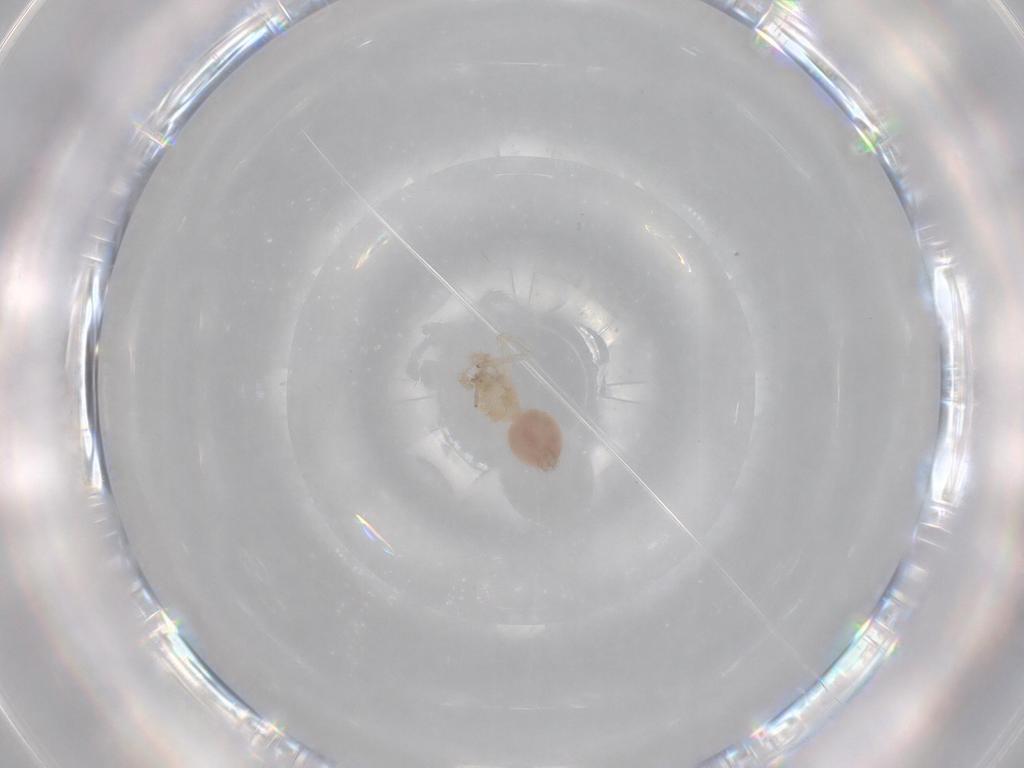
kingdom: Animalia
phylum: Arthropoda
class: Arachnida
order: Araneae
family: Oonopidae
